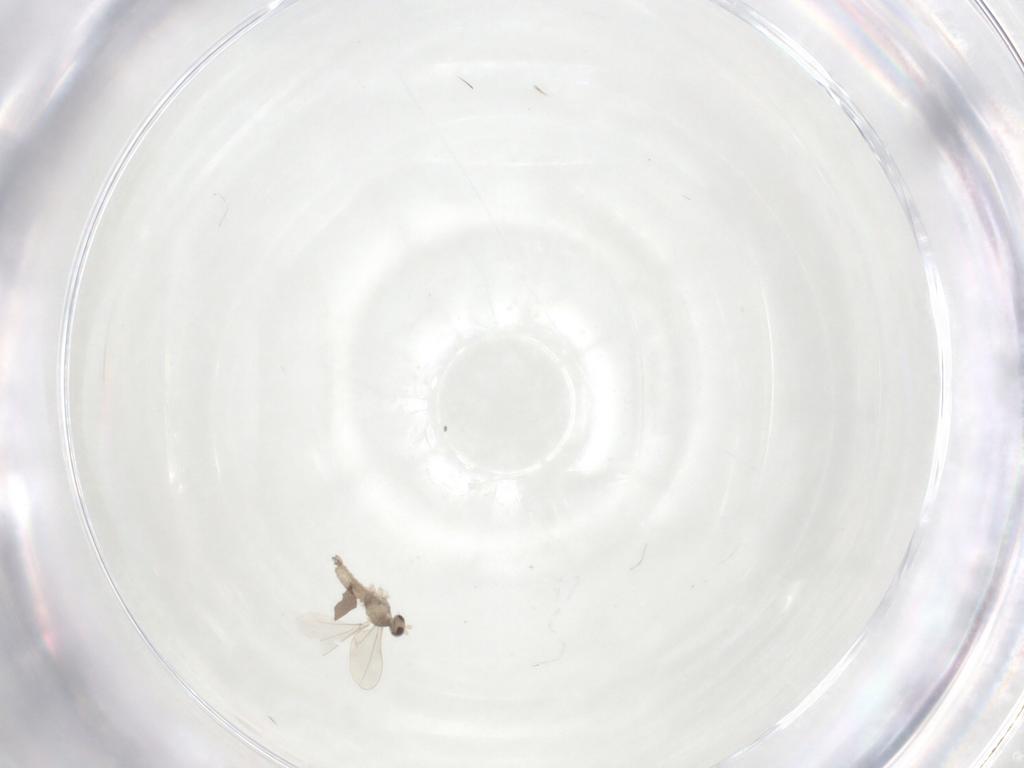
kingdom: Animalia
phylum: Arthropoda
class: Insecta
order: Diptera
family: Cecidomyiidae
